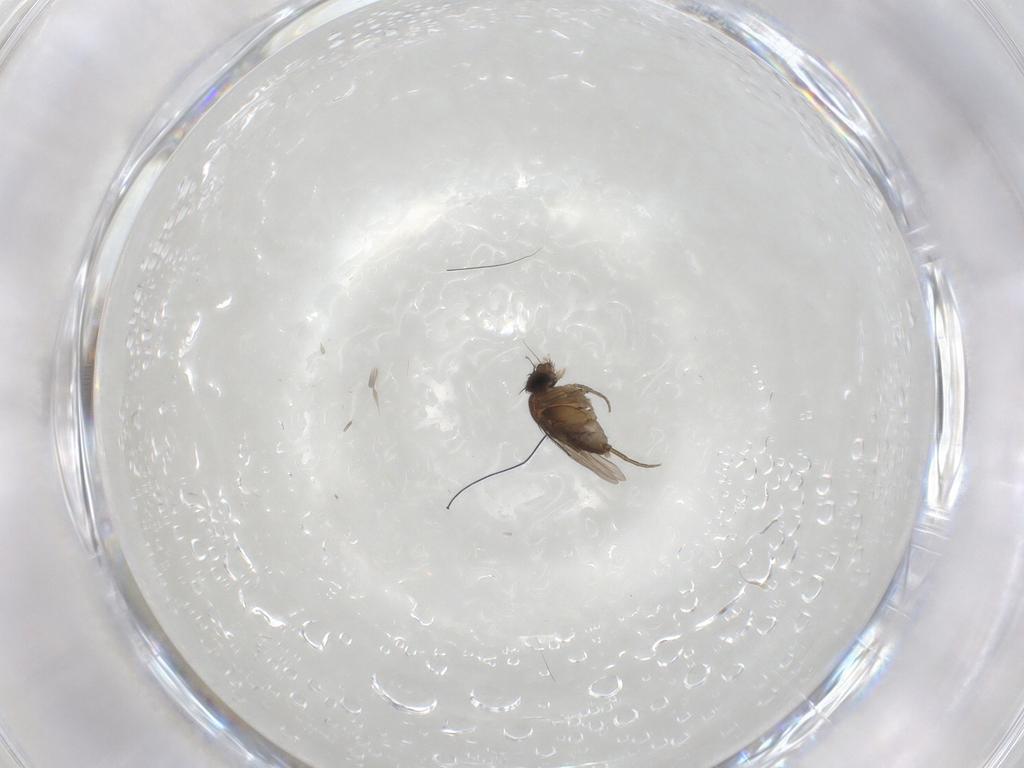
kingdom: Animalia
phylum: Arthropoda
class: Insecta
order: Diptera
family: Phoridae
